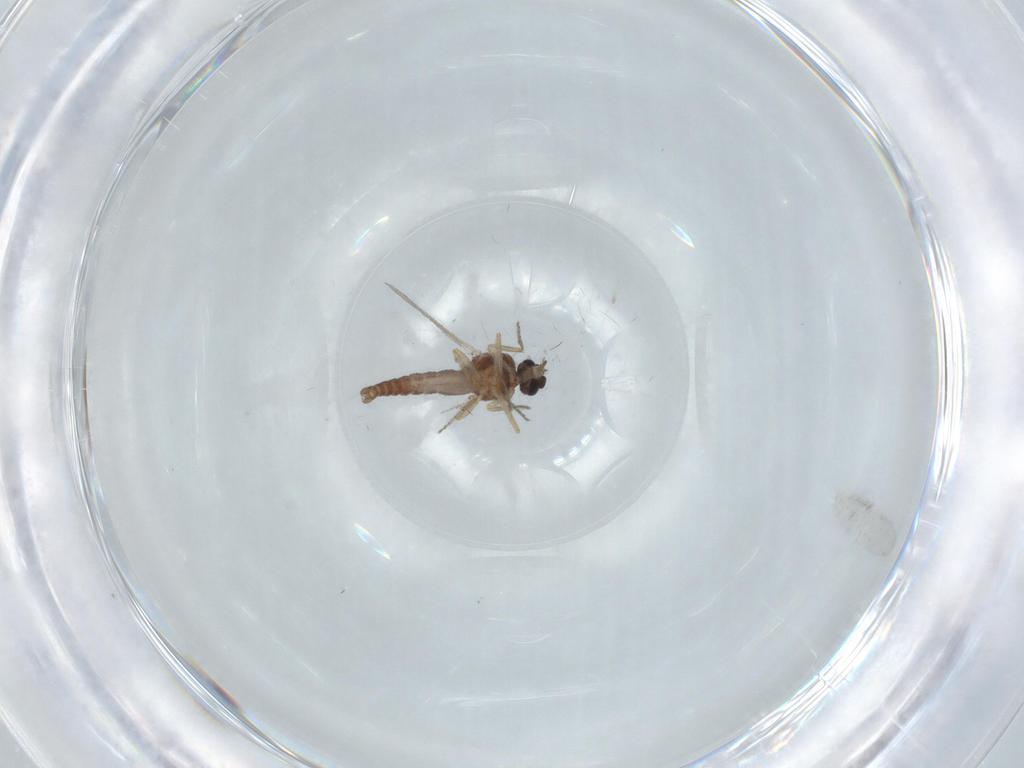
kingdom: Animalia
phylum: Arthropoda
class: Insecta
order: Diptera
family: Ceratopogonidae
